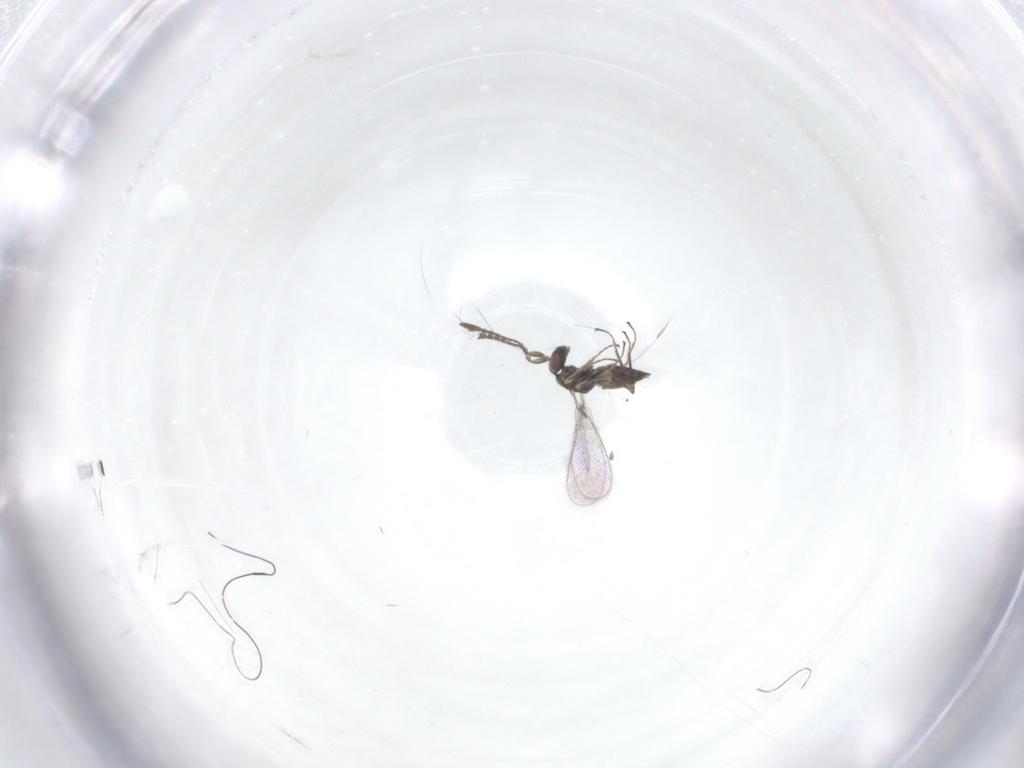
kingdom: Animalia
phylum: Arthropoda
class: Insecta
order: Hymenoptera
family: Mymaridae
